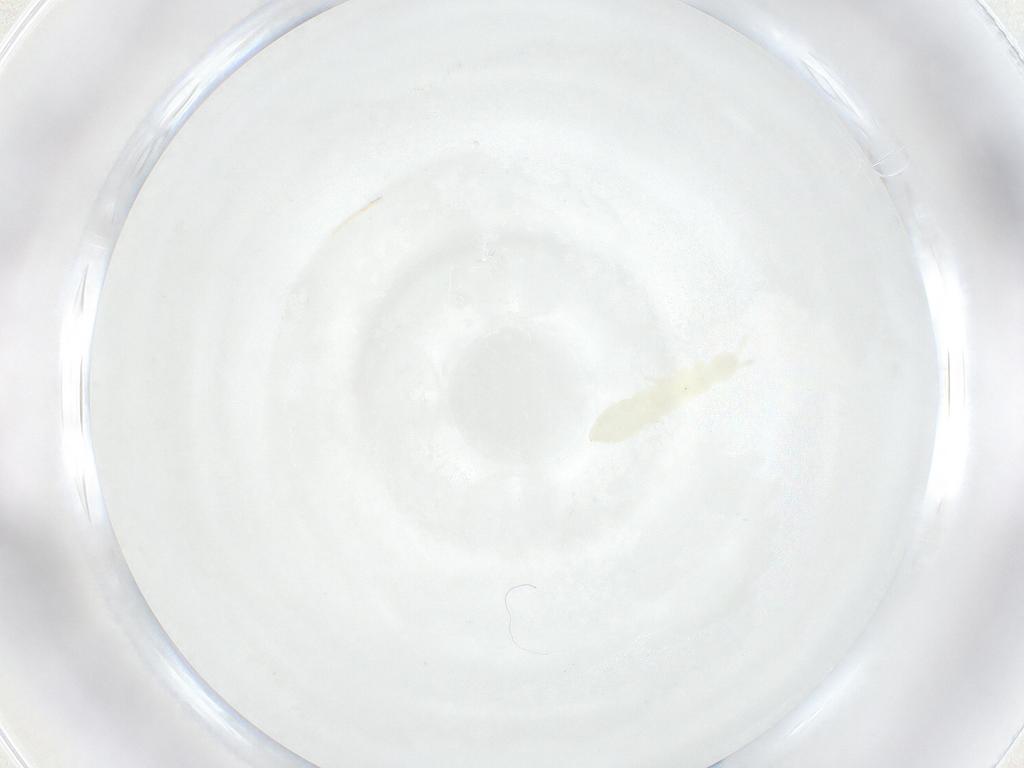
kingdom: Animalia
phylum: Arthropoda
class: Collembola
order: Poduromorpha
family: Onychiuridae
